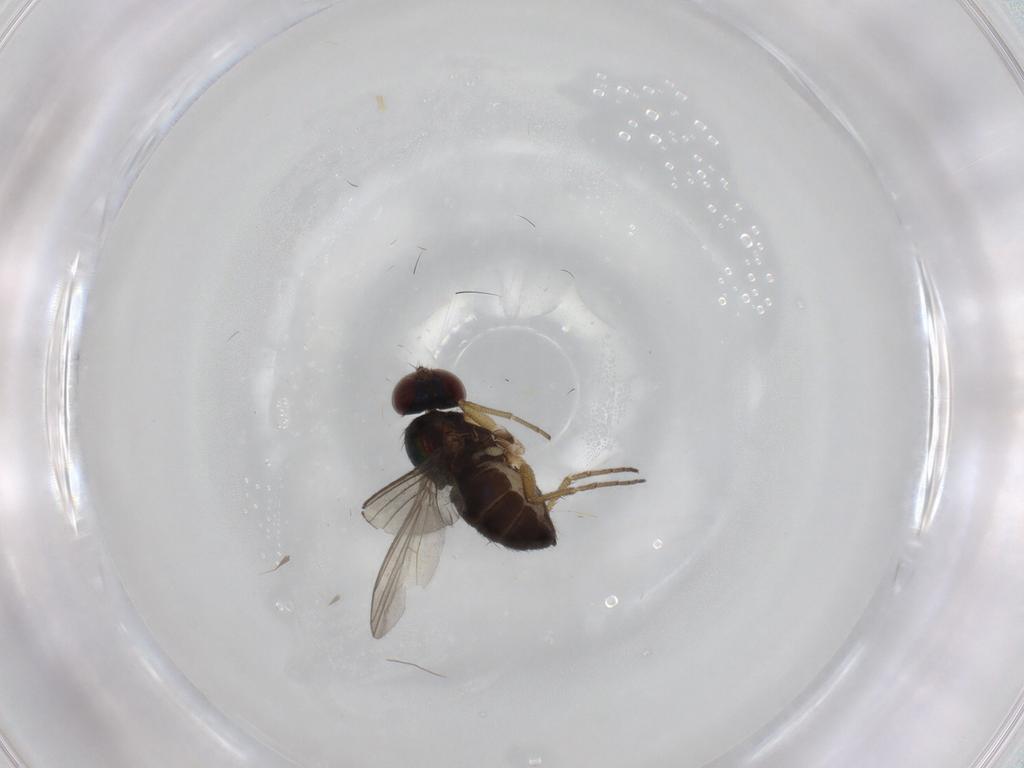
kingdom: Animalia
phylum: Arthropoda
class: Insecta
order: Diptera
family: Dolichopodidae
